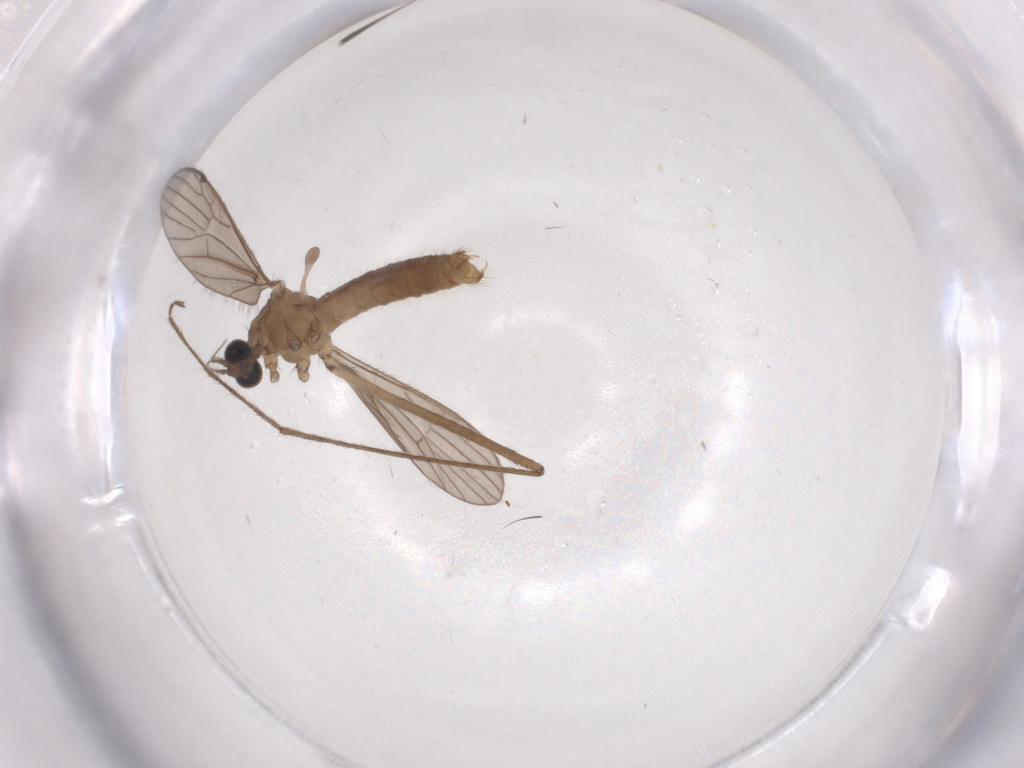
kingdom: Animalia
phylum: Arthropoda
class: Insecta
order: Diptera
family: Limoniidae
